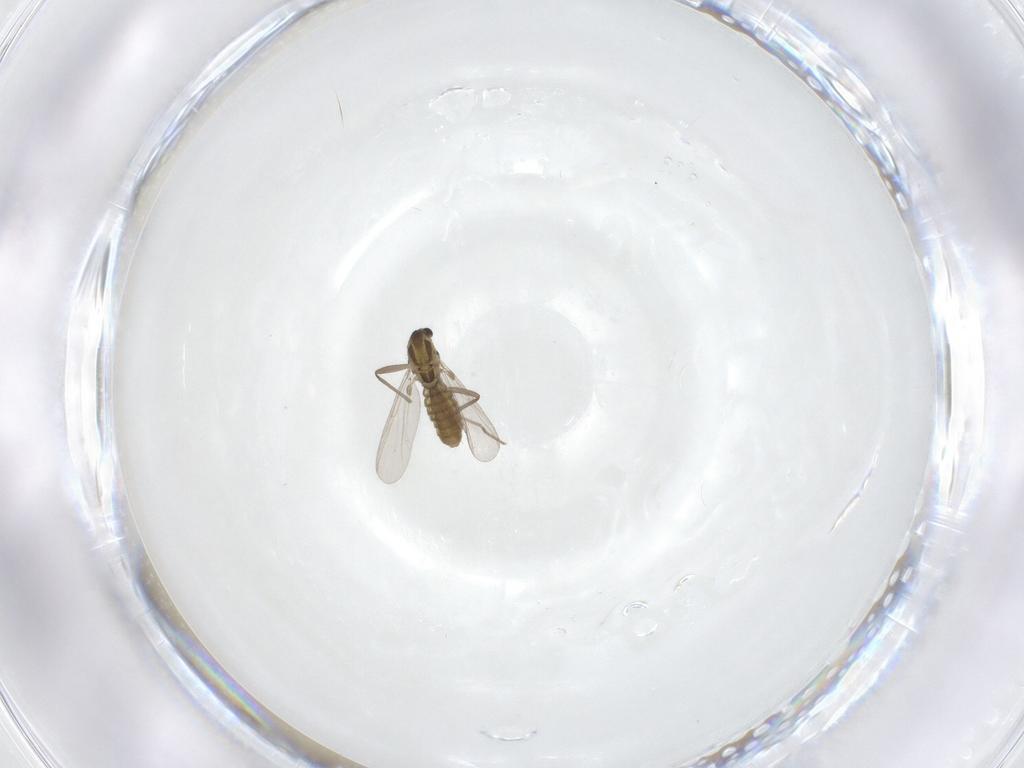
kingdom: Animalia
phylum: Arthropoda
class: Insecta
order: Diptera
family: Chironomidae
